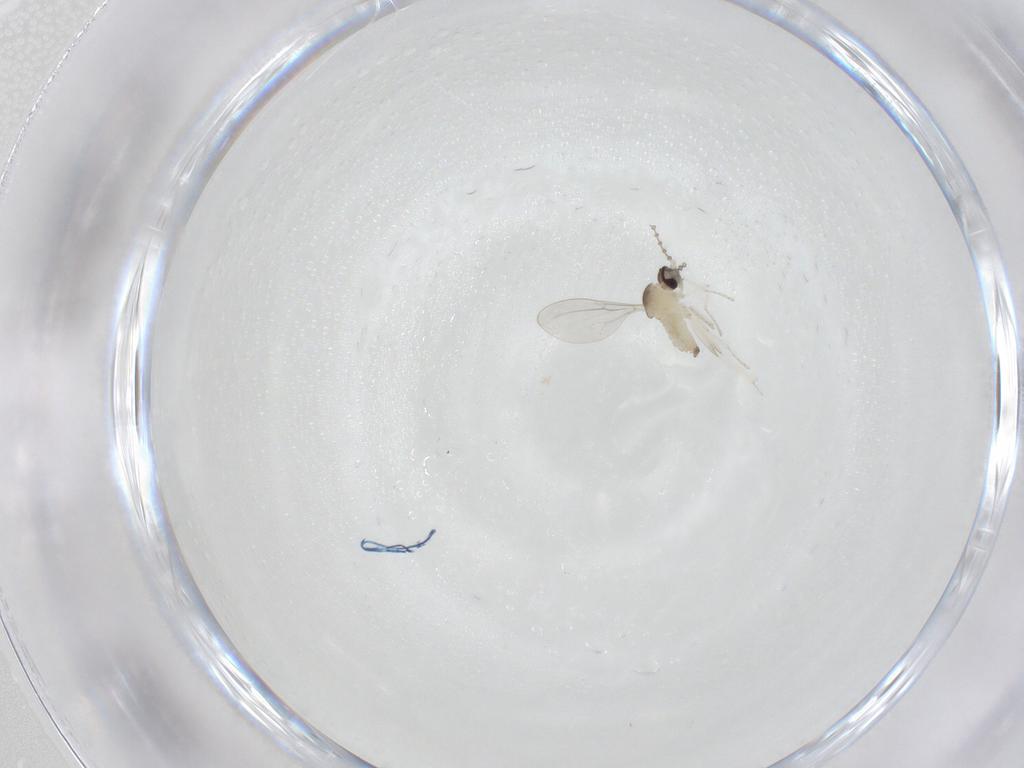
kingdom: Animalia
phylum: Arthropoda
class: Insecta
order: Diptera
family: Cecidomyiidae
